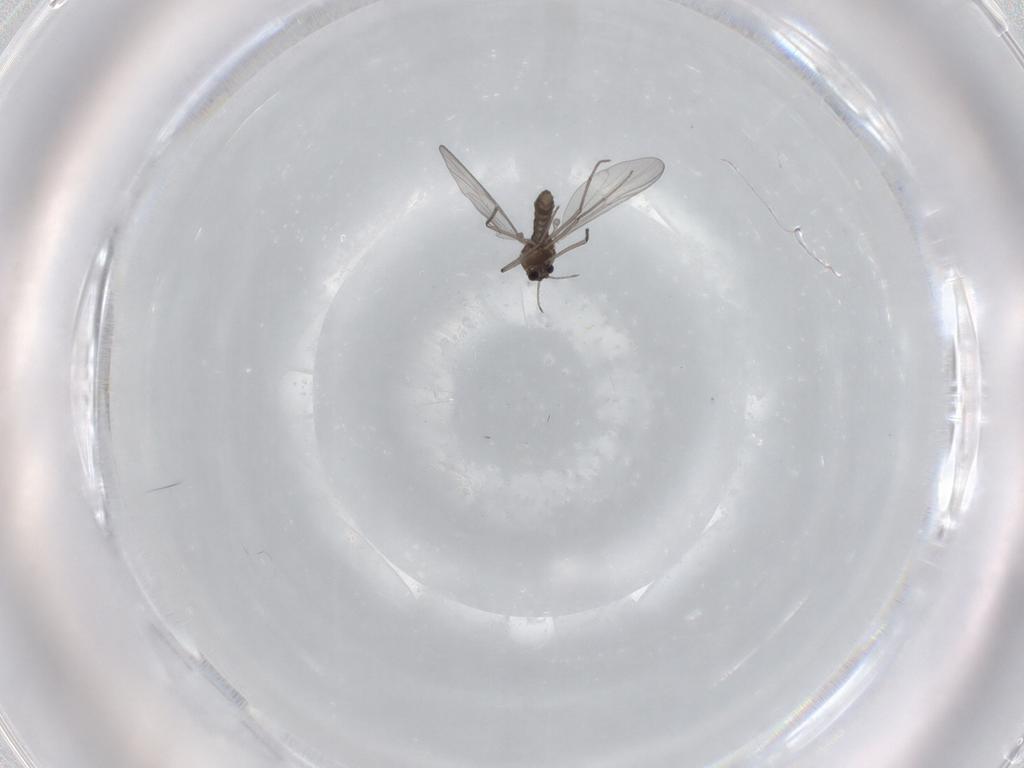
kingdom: Animalia
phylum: Arthropoda
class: Insecta
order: Diptera
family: Chironomidae
